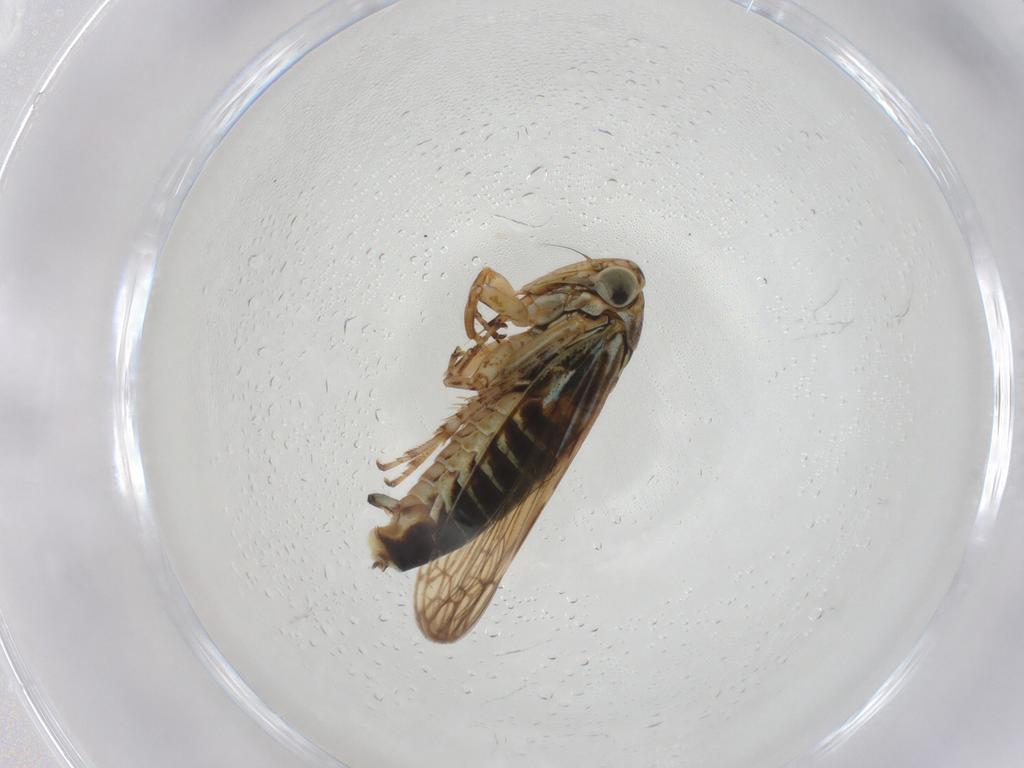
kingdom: Animalia
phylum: Arthropoda
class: Insecta
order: Hemiptera
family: Cicadellidae
